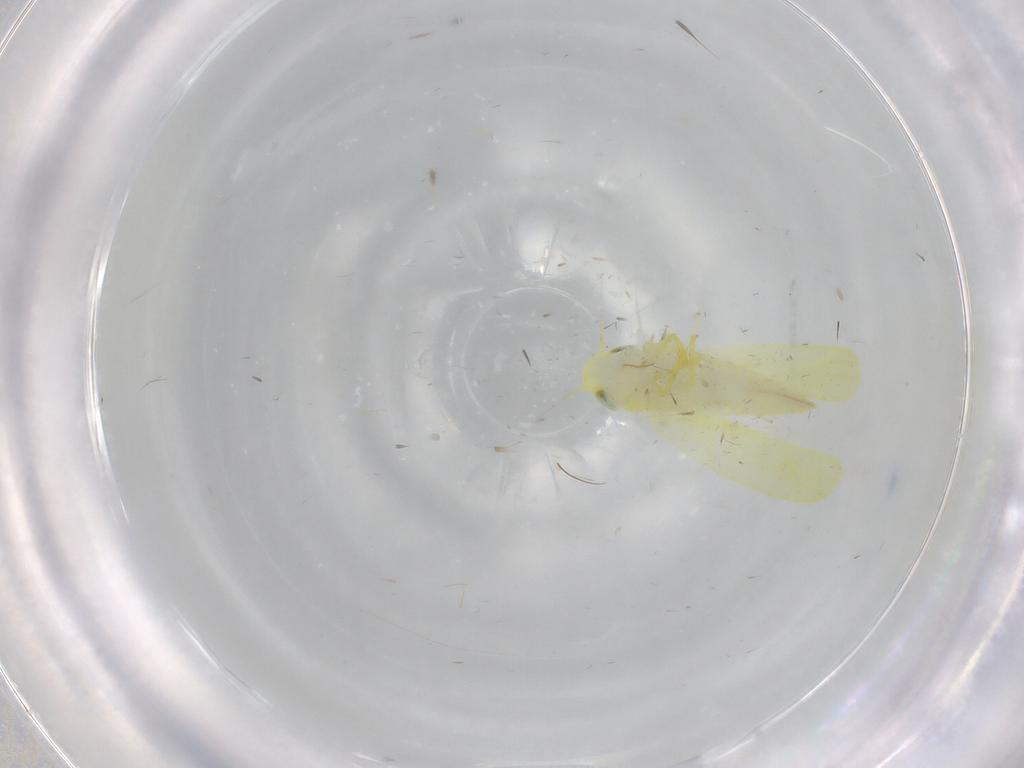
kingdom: Animalia
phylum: Arthropoda
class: Insecta
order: Hemiptera
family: Cicadellidae
